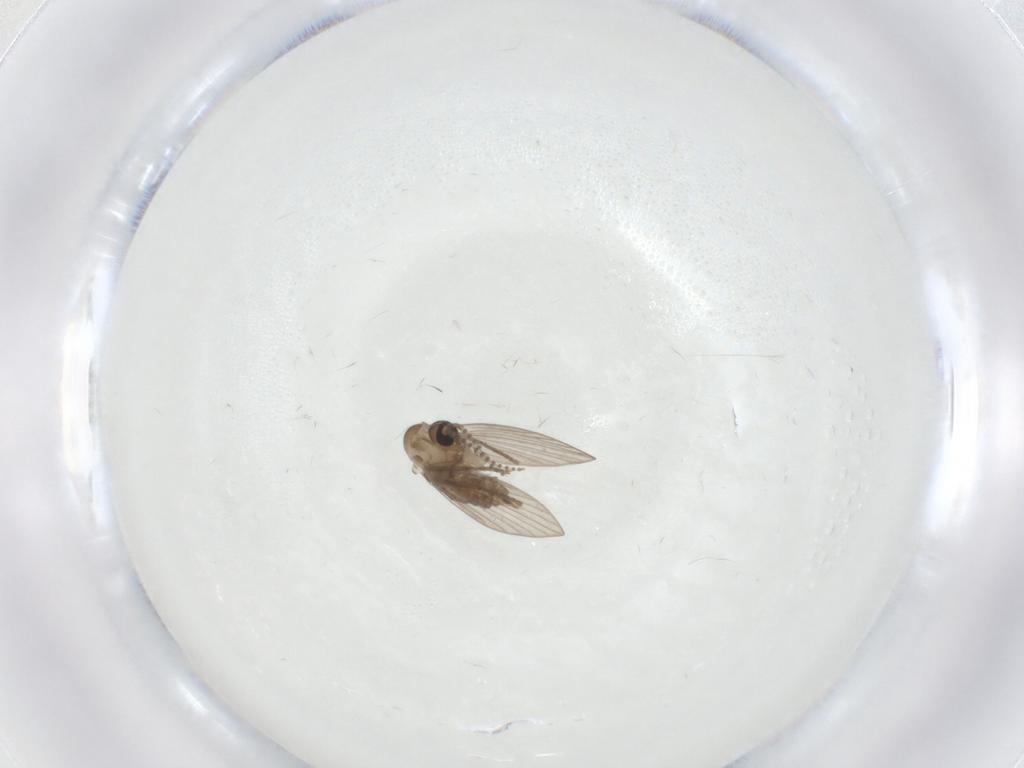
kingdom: Animalia
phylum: Arthropoda
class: Insecta
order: Diptera
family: Psychodidae
